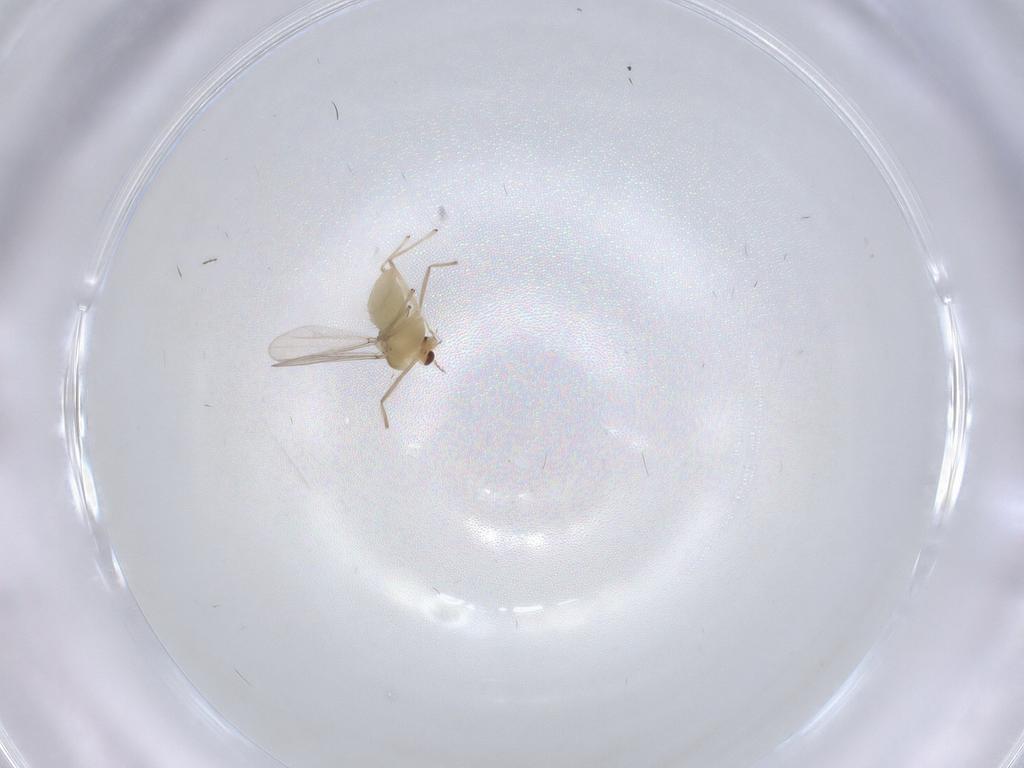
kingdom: Animalia
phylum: Arthropoda
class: Insecta
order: Diptera
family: Chironomidae
